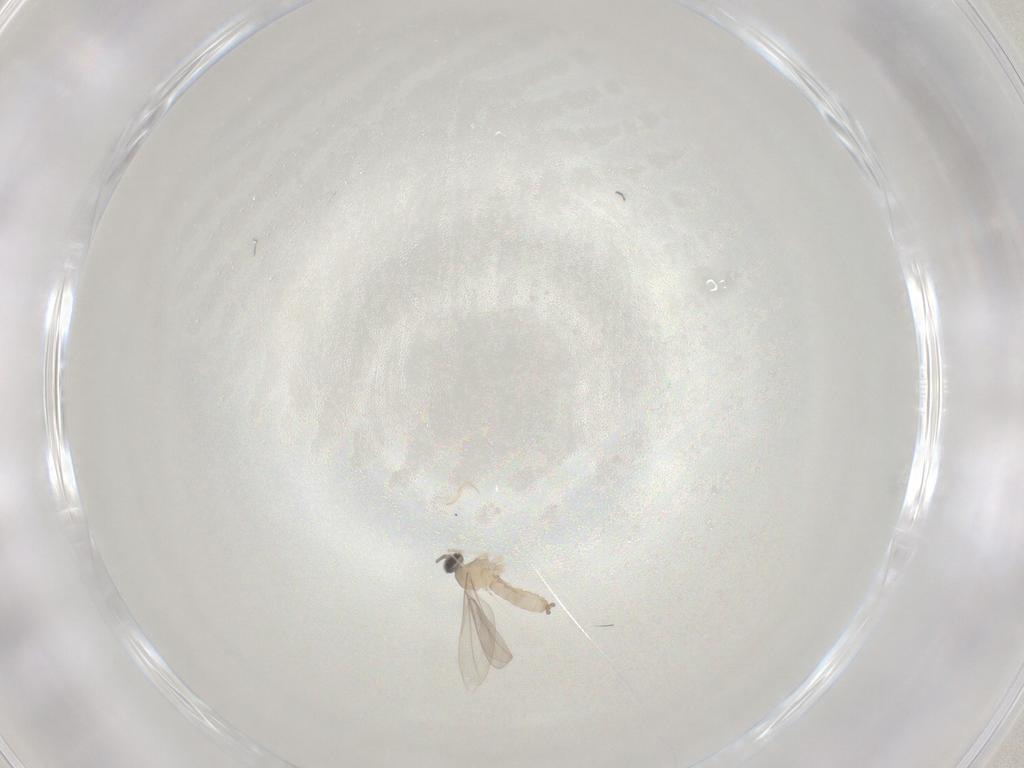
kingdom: Animalia
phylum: Arthropoda
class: Insecta
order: Diptera
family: Cecidomyiidae
